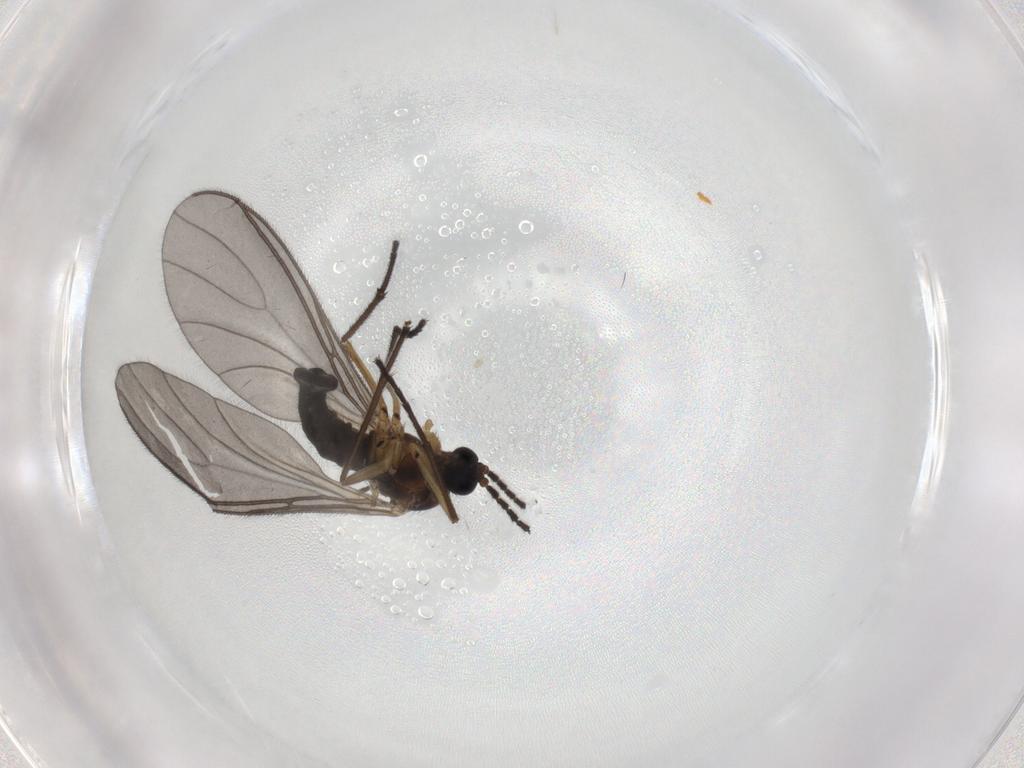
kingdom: Animalia
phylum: Arthropoda
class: Insecta
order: Diptera
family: Sciaridae
